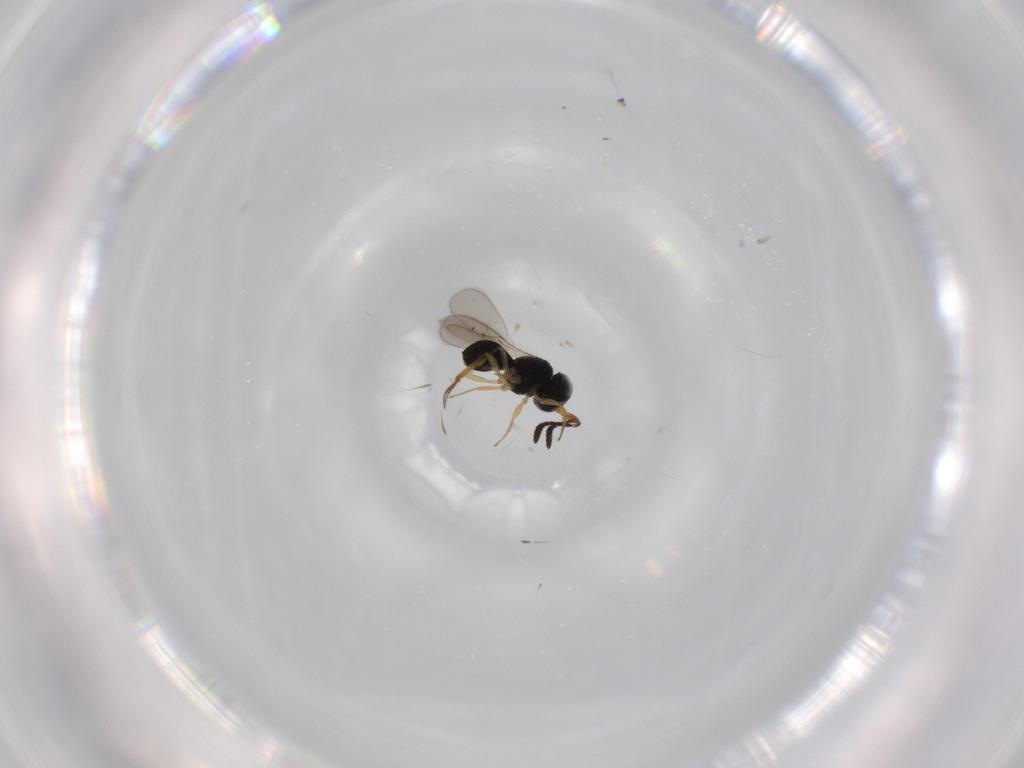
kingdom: Animalia
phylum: Arthropoda
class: Insecta
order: Hymenoptera
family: Scelionidae
